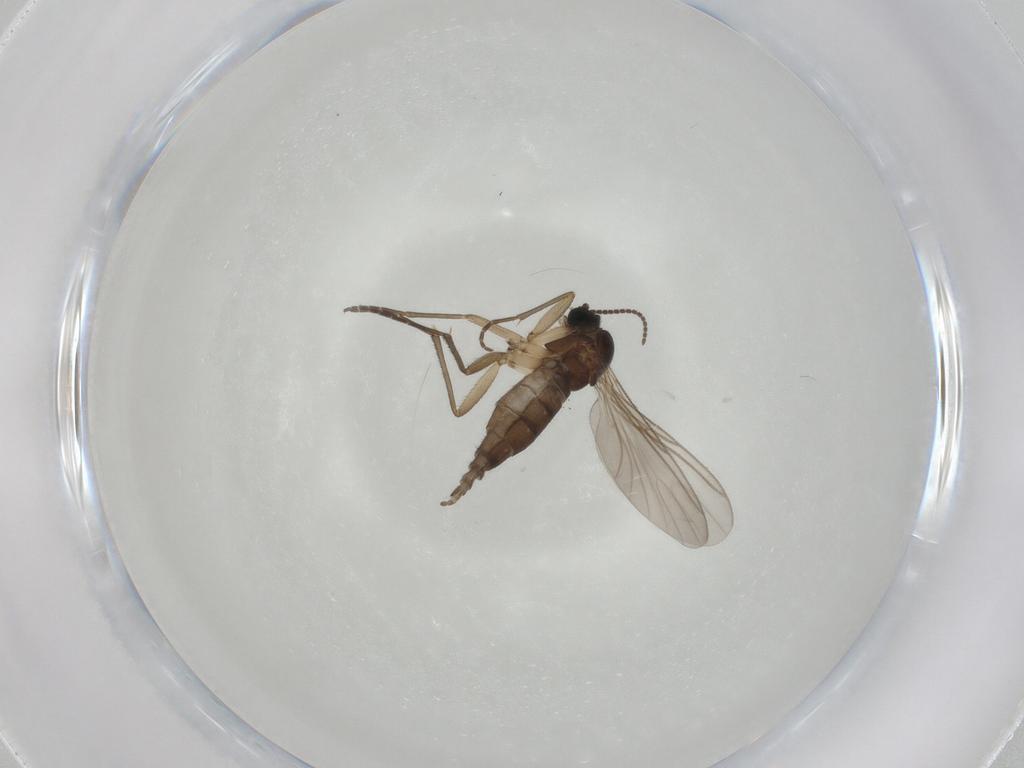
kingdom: Animalia
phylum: Arthropoda
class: Insecta
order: Diptera
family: Sciaridae
